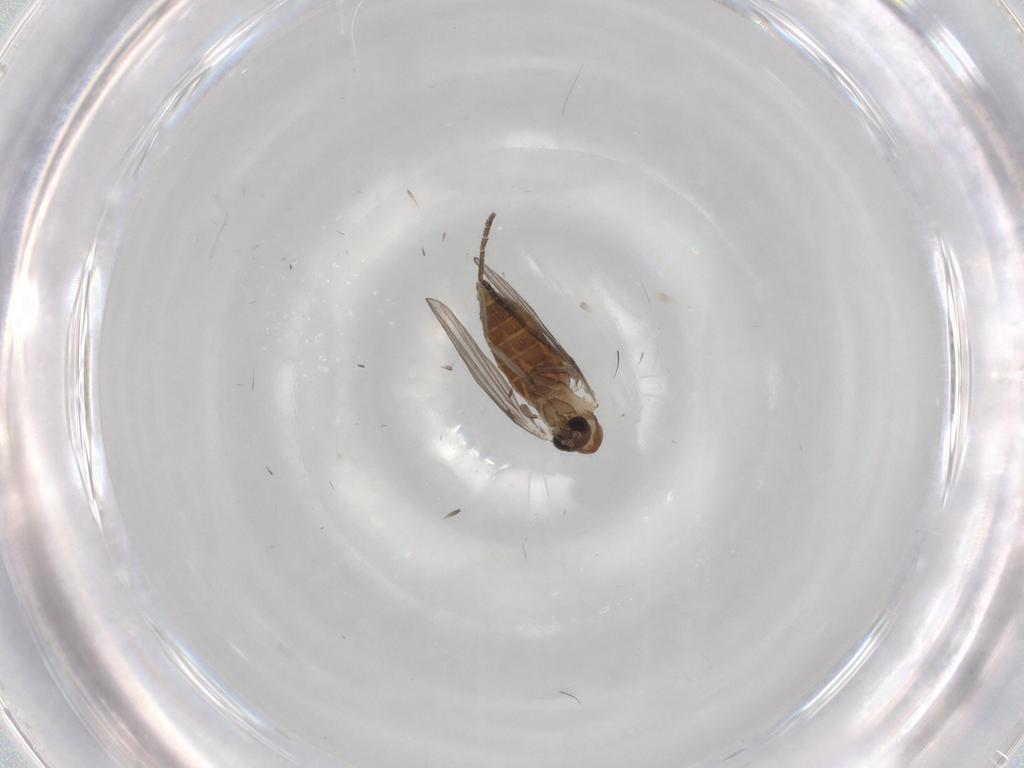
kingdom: Animalia
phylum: Arthropoda
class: Insecta
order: Diptera
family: Psychodidae
